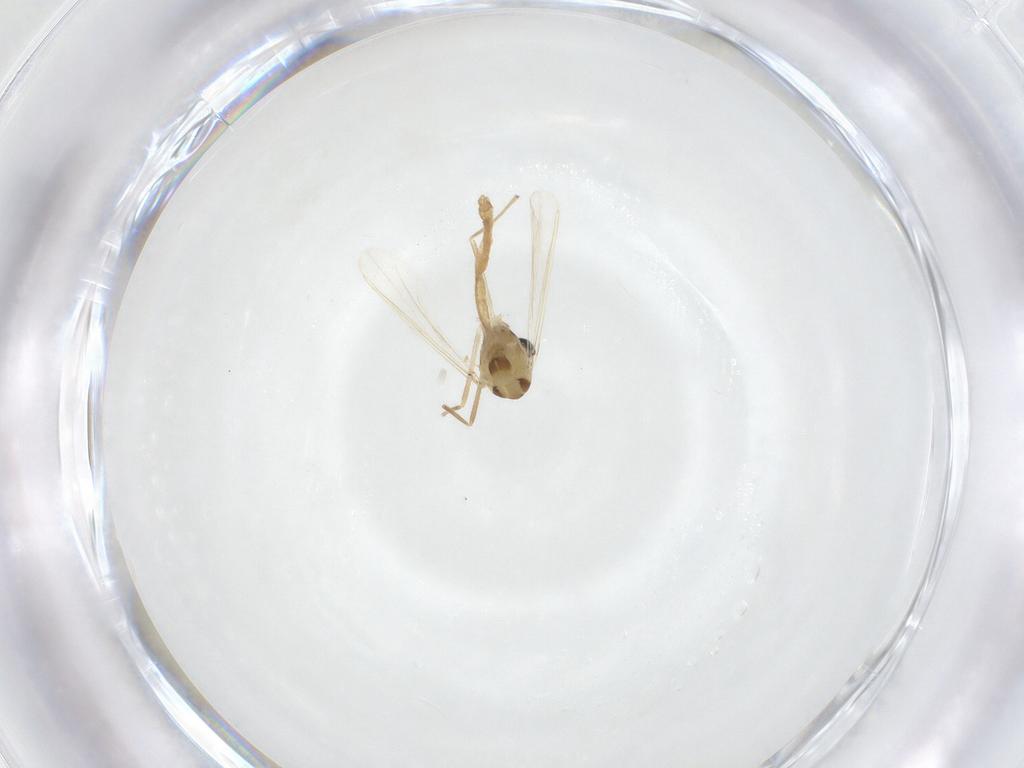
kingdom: Animalia
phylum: Arthropoda
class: Insecta
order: Diptera
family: Chironomidae
